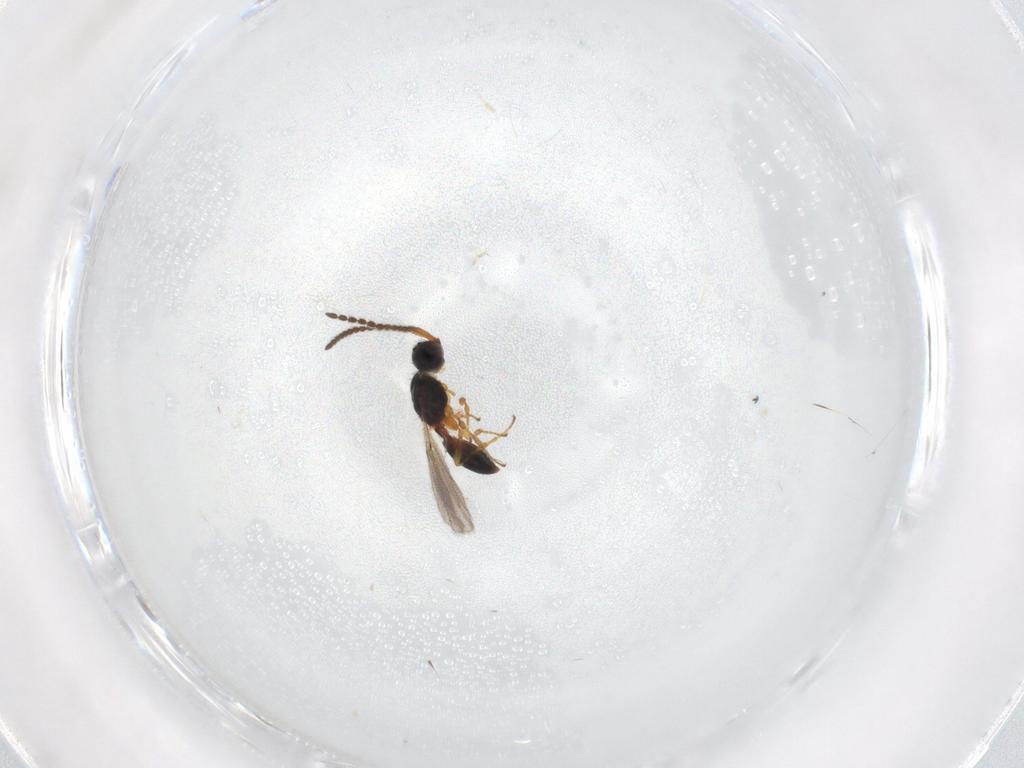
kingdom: Animalia
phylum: Arthropoda
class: Insecta
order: Hymenoptera
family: Diapriidae
